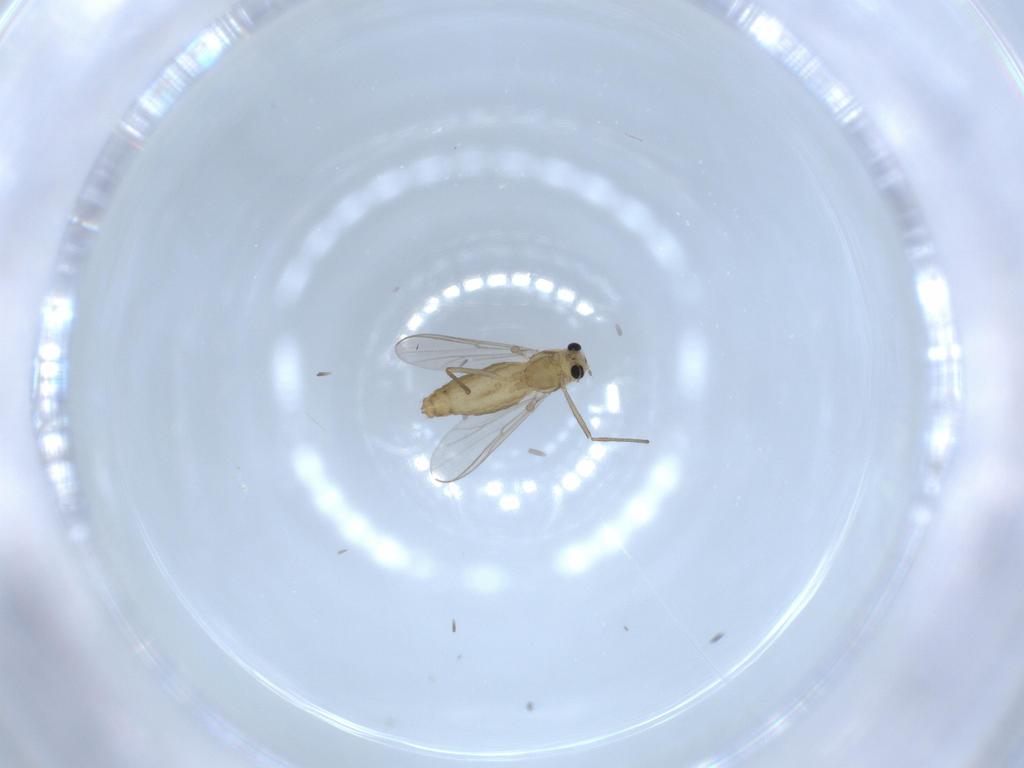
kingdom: Animalia
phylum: Arthropoda
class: Insecta
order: Diptera
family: Chironomidae
